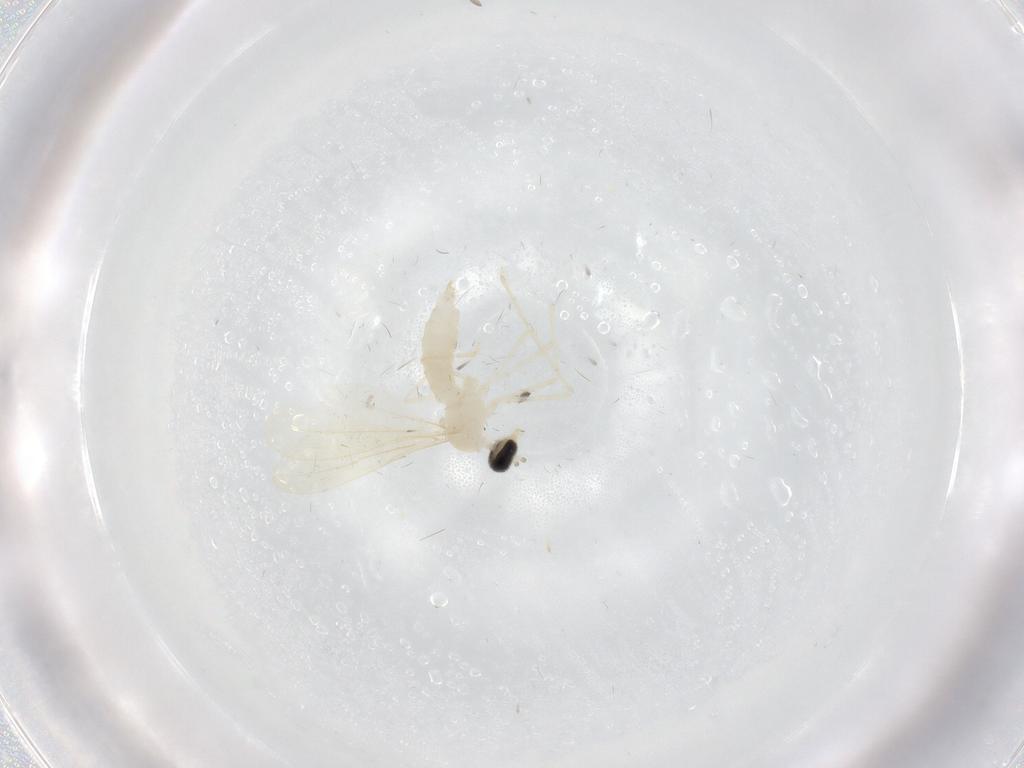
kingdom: Animalia
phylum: Arthropoda
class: Insecta
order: Diptera
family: Cecidomyiidae
